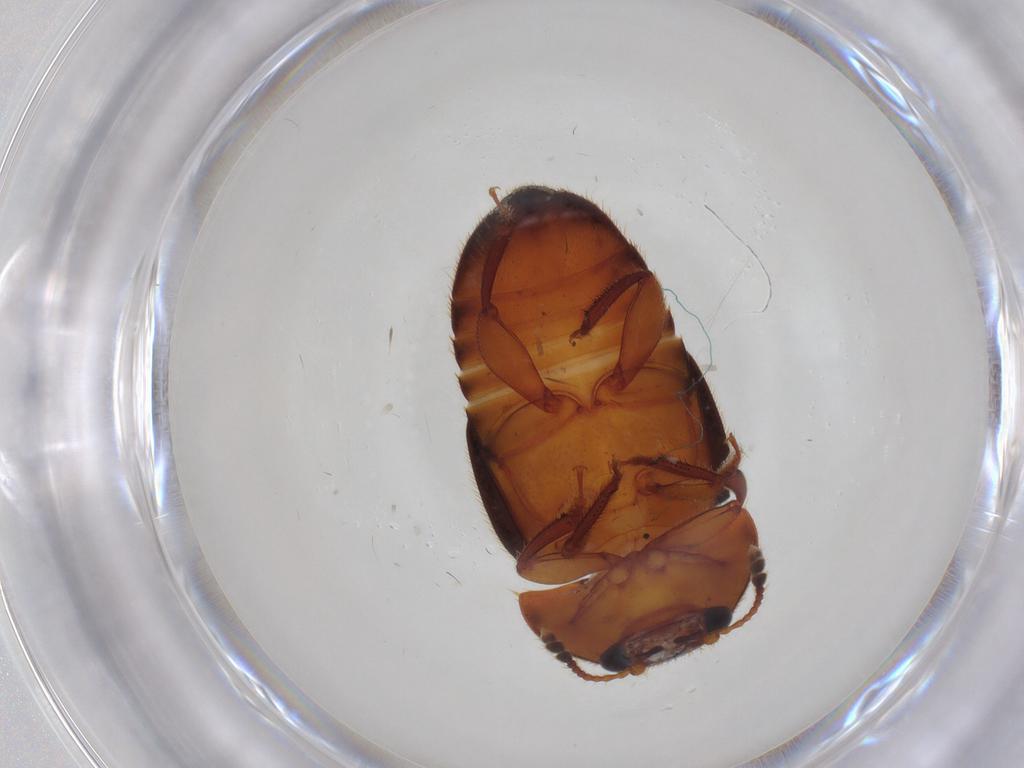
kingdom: Animalia
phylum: Arthropoda
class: Insecta
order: Coleoptera
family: Nitidulidae
